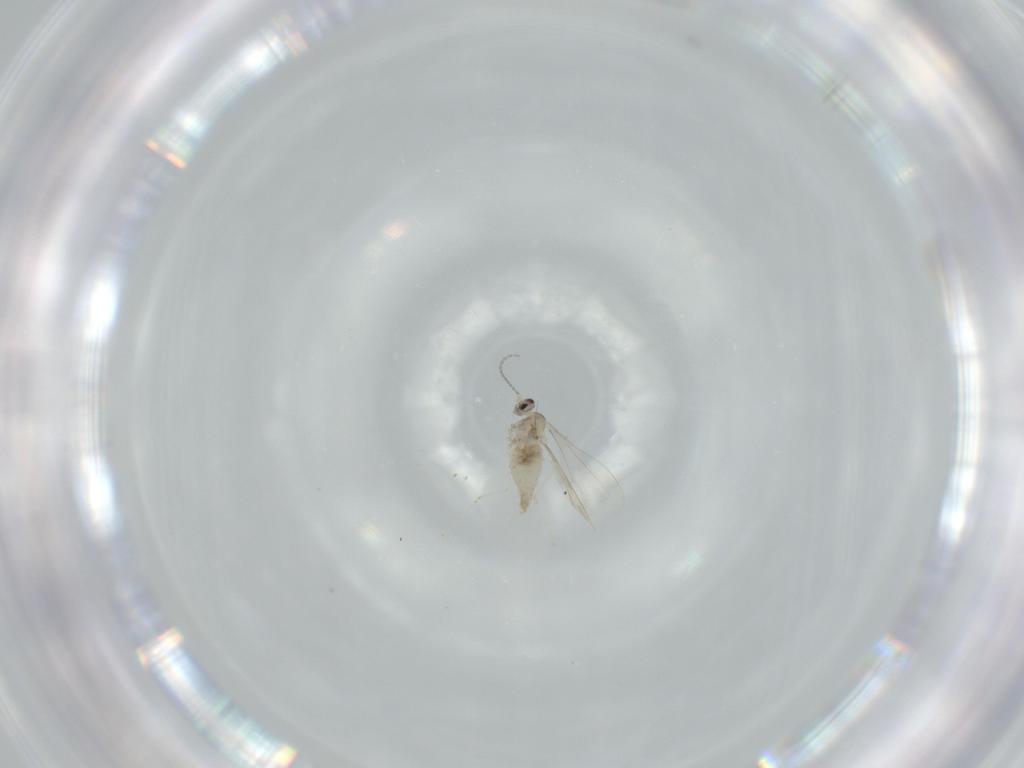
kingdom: Animalia
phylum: Arthropoda
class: Insecta
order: Diptera
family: Cecidomyiidae
